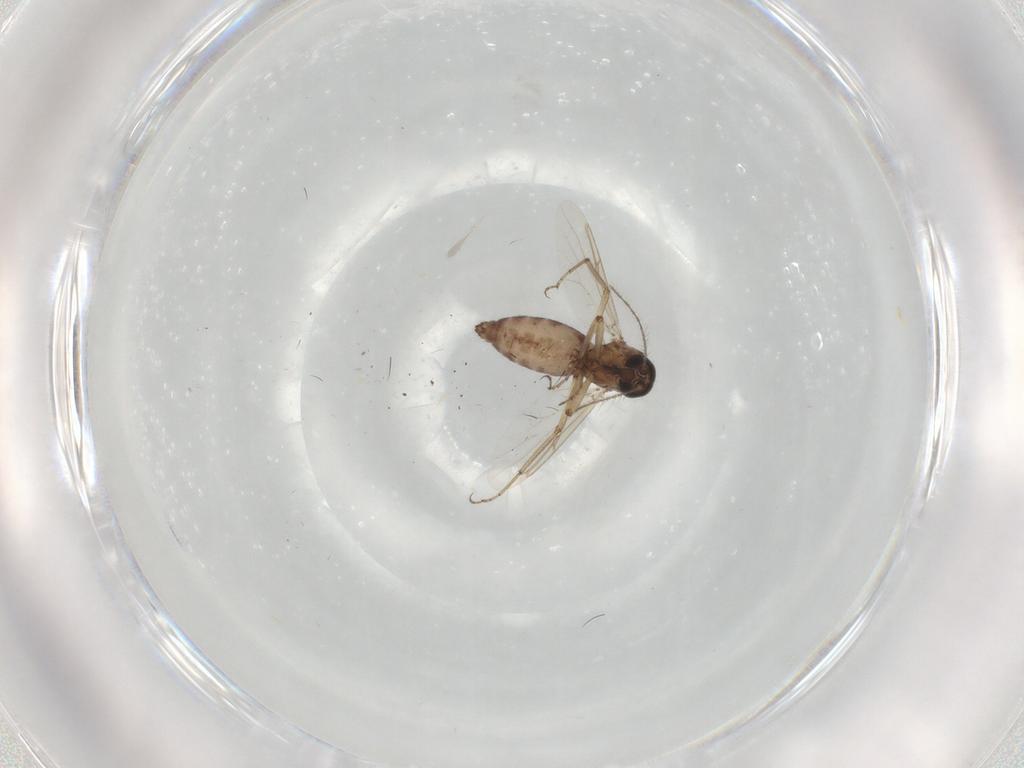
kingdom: Animalia
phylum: Arthropoda
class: Insecta
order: Diptera
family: Ceratopogonidae
